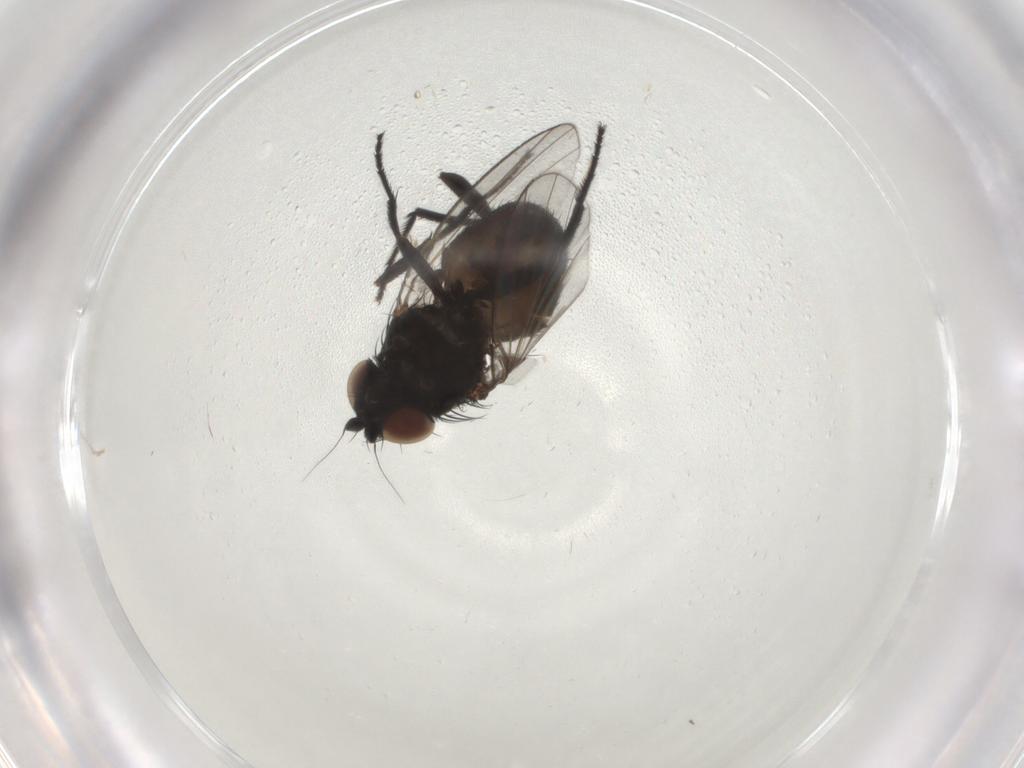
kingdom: Animalia
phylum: Arthropoda
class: Insecta
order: Diptera
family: Milichiidae
